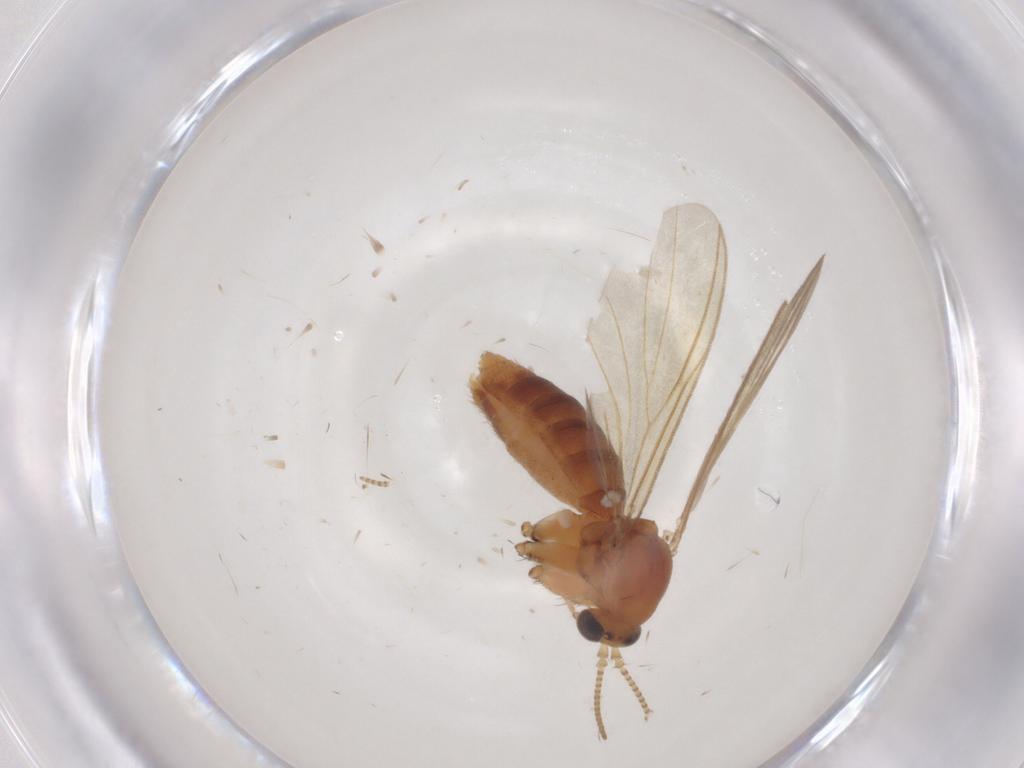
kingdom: Animalia
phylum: Arthropoda
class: Insecta
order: Diptera
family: Mycetophilidae
